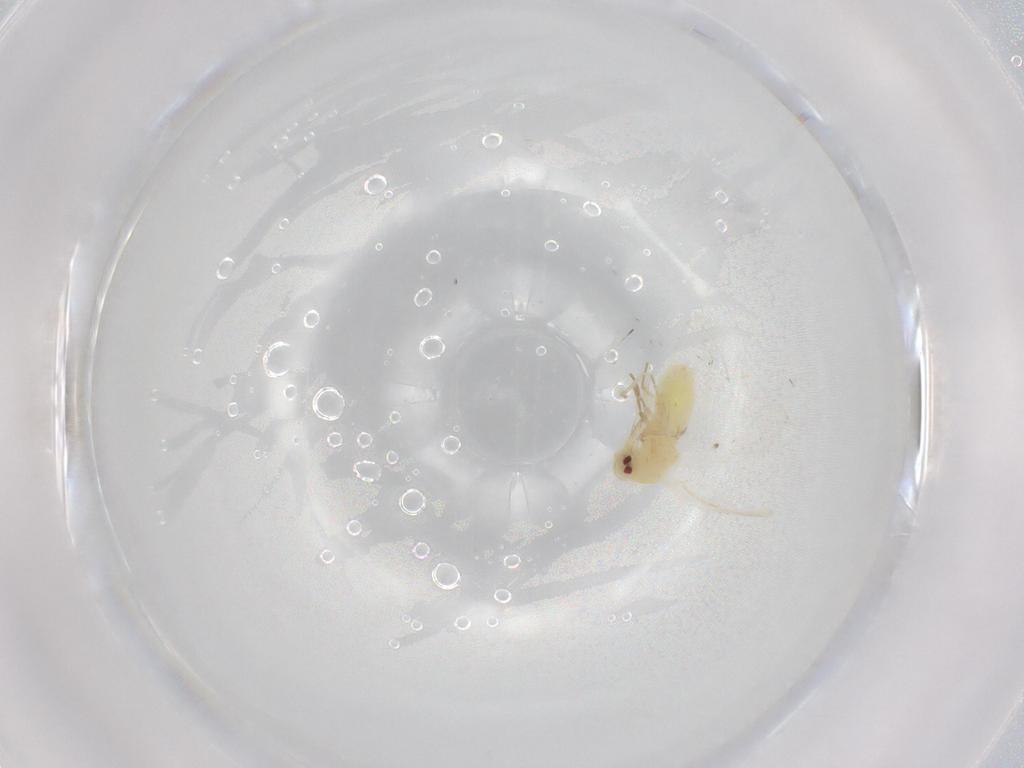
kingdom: Animalia
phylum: Arthropoda
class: Insecta
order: Hemiptera
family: Aleyrodidae
